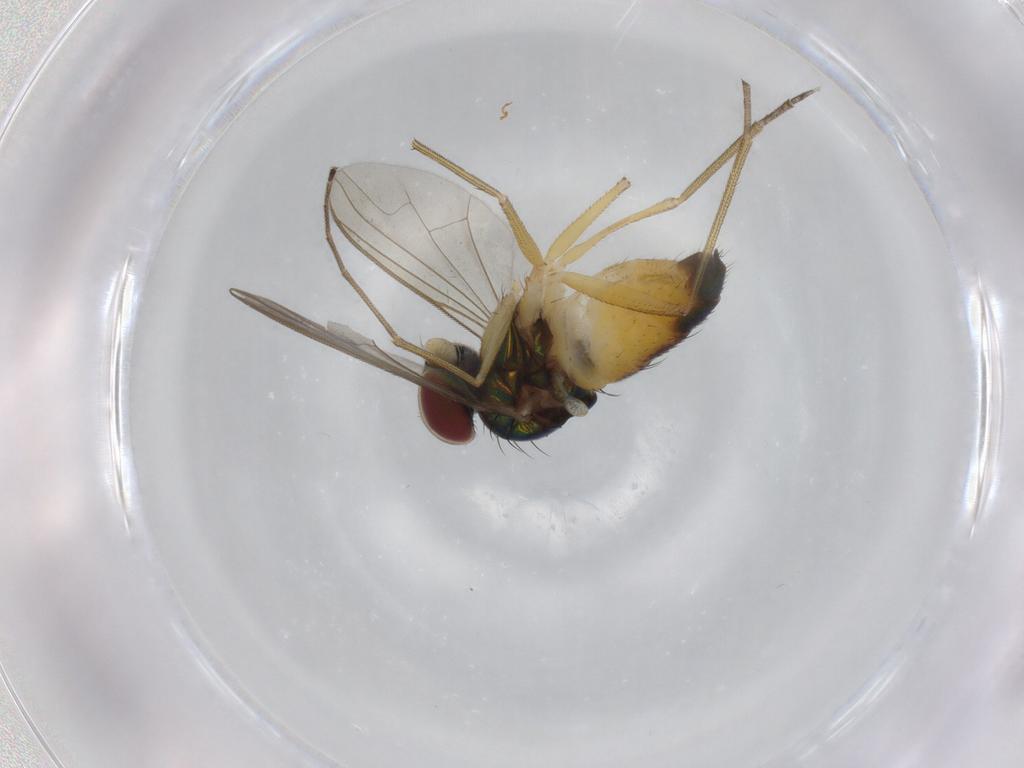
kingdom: Animalia
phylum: Arthropoda
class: Insecta
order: Diptera
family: Dolichopodidae
